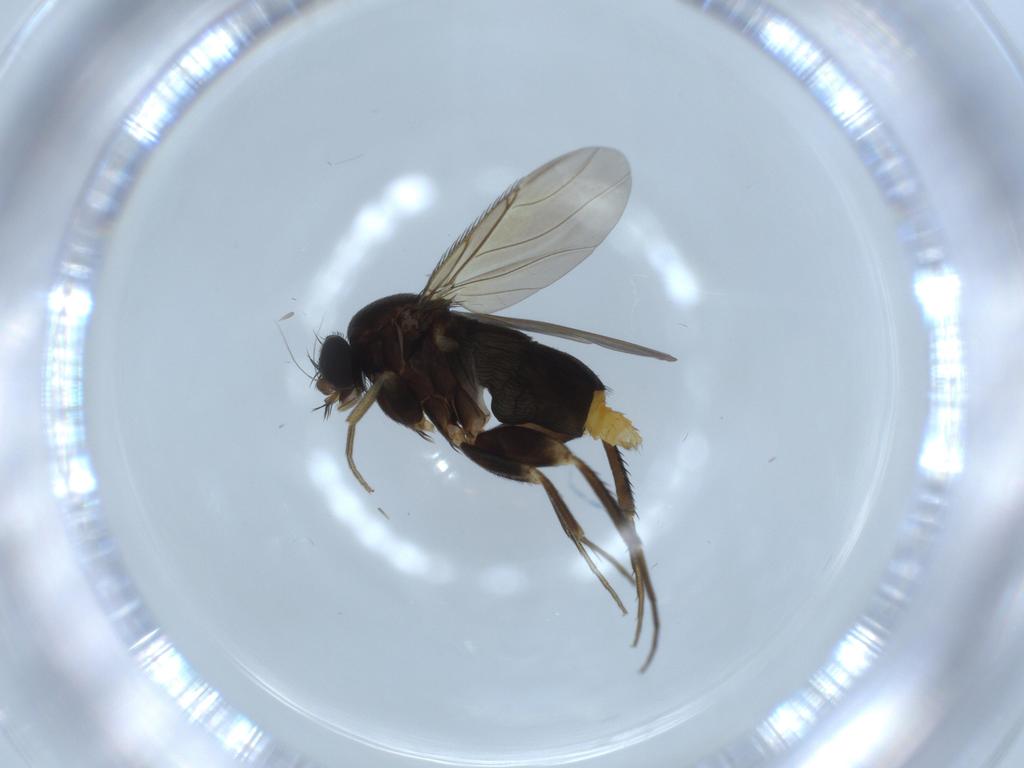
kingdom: Animalia
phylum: Arthropoda
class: Insecta
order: Diptera
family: Phoridae
